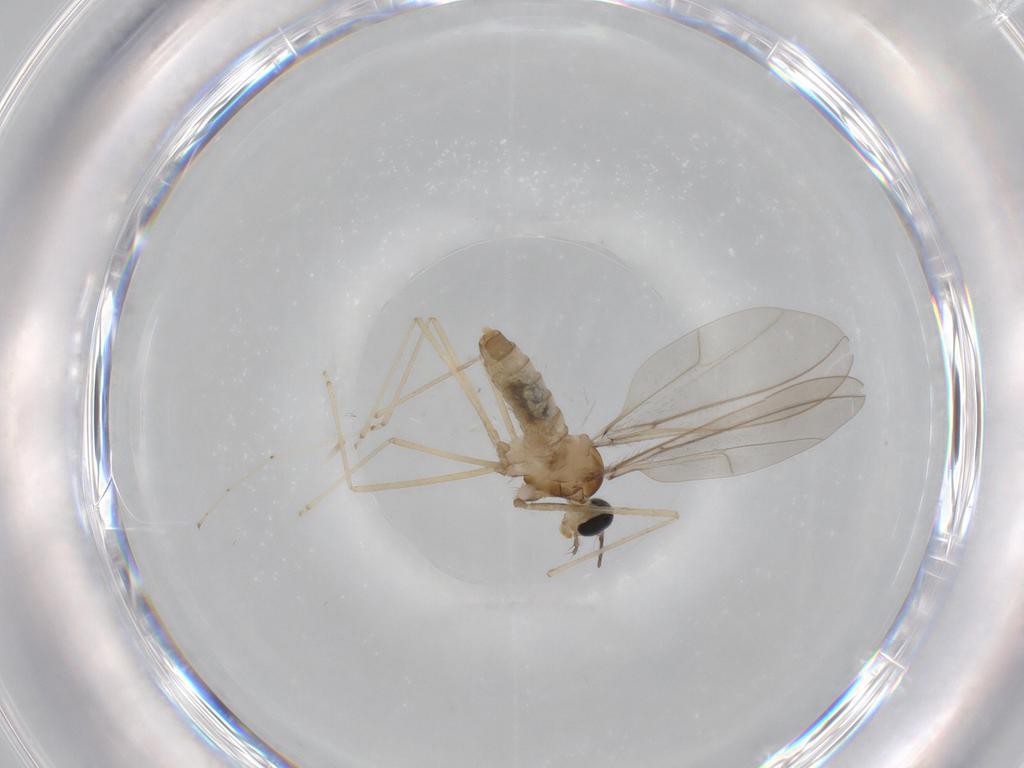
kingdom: Animalia
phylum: Arthropoda
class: Insecta
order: Diptera
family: Cecidomyiidae
